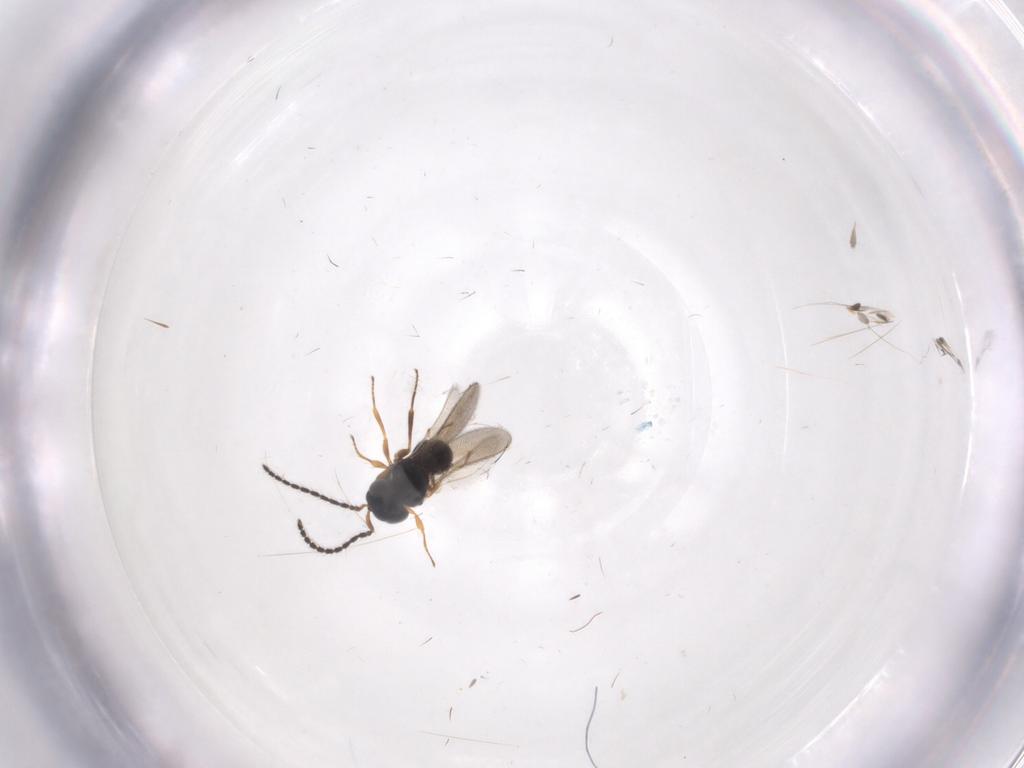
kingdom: Animalia
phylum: Arthropoda
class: Insecta
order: Hymenoptera
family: Scelionidae
